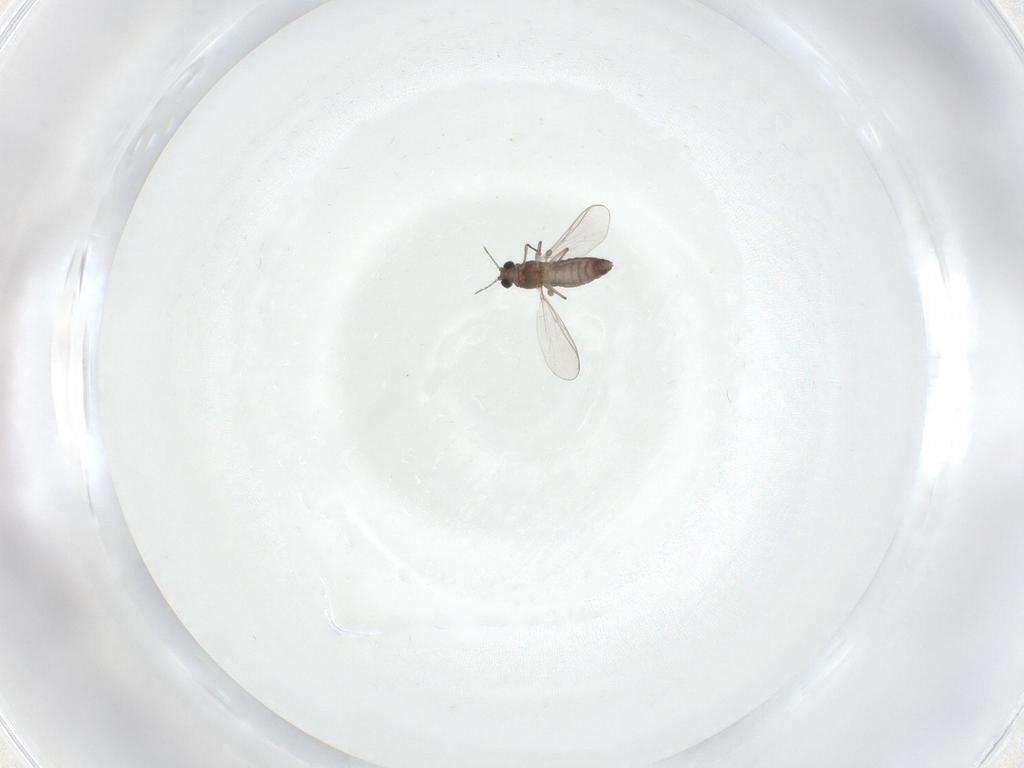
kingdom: Animalia
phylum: Arthropoda
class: Insecta
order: Diptera
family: Chironomidae
